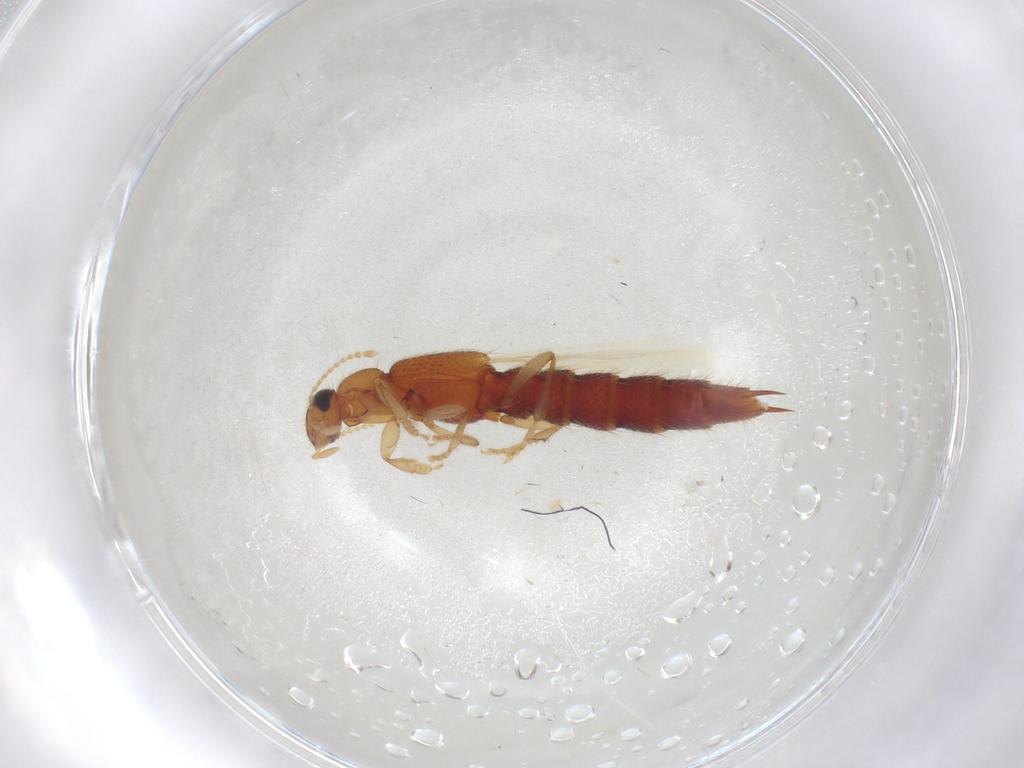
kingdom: Animalia
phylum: Arthropoda
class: Insecta
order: Coleoptera
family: Staphylinidae
